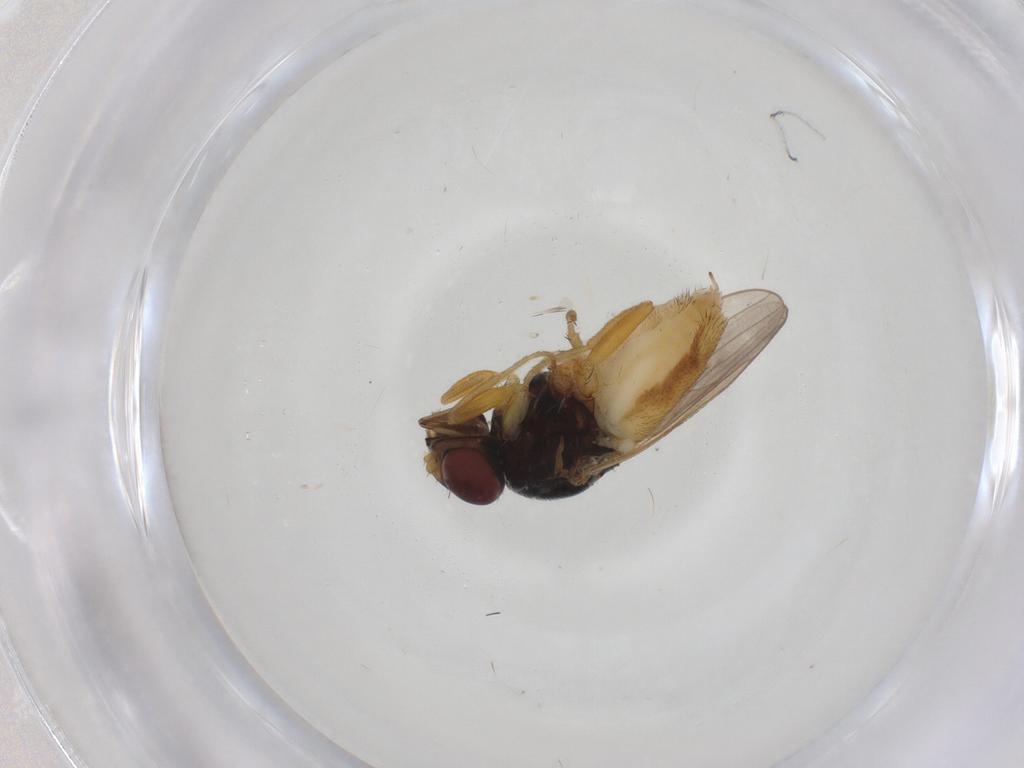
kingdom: Animalia
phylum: Arthropoda
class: Insecta
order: Diptera
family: Chloropidae
